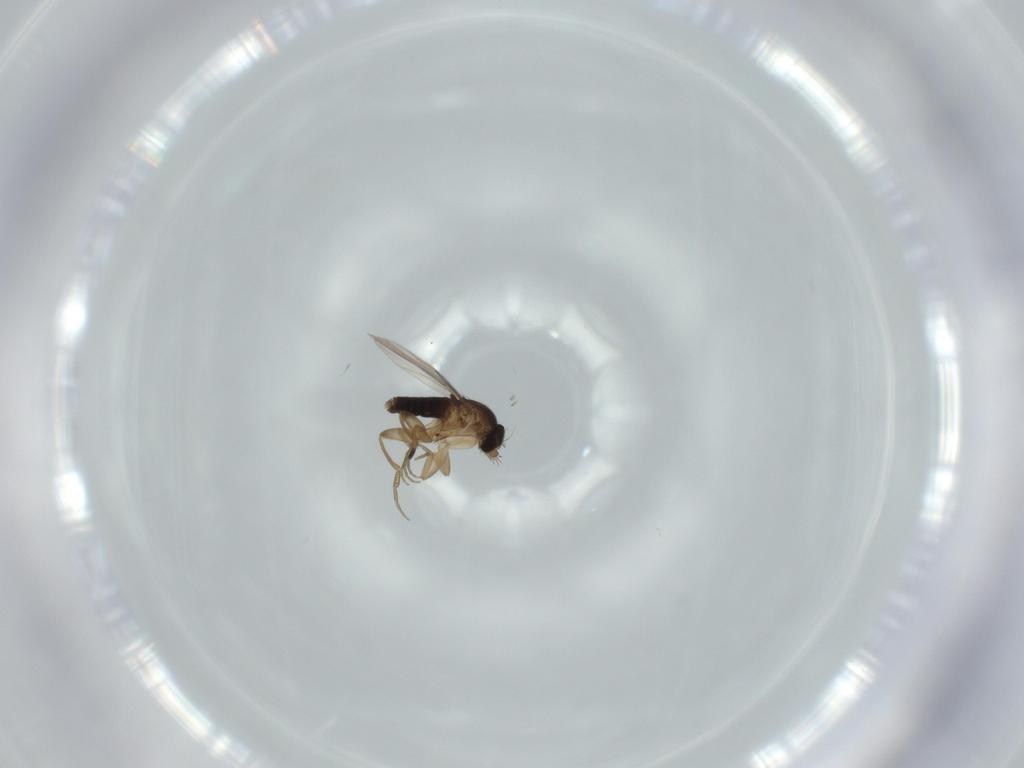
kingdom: Animalia
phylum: Arthropoda
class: Insecta
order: Diptera
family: Phoridae
